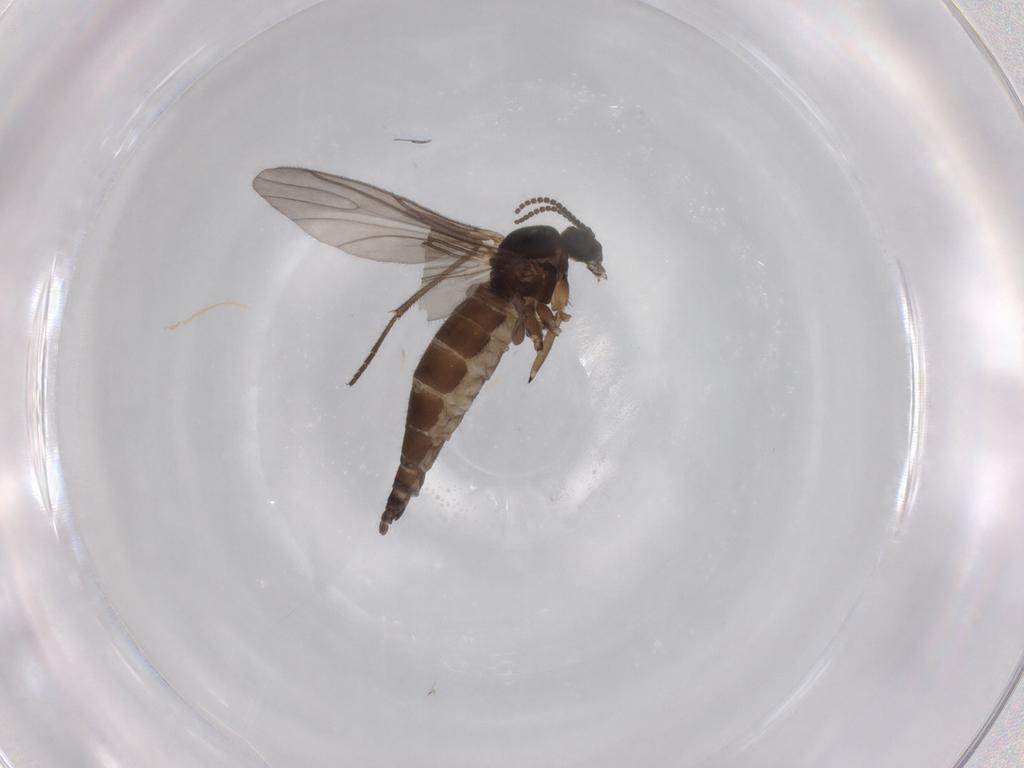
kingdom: Animalia
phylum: Arthropoda
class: Insecta
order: Diptera
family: Sciaridae
